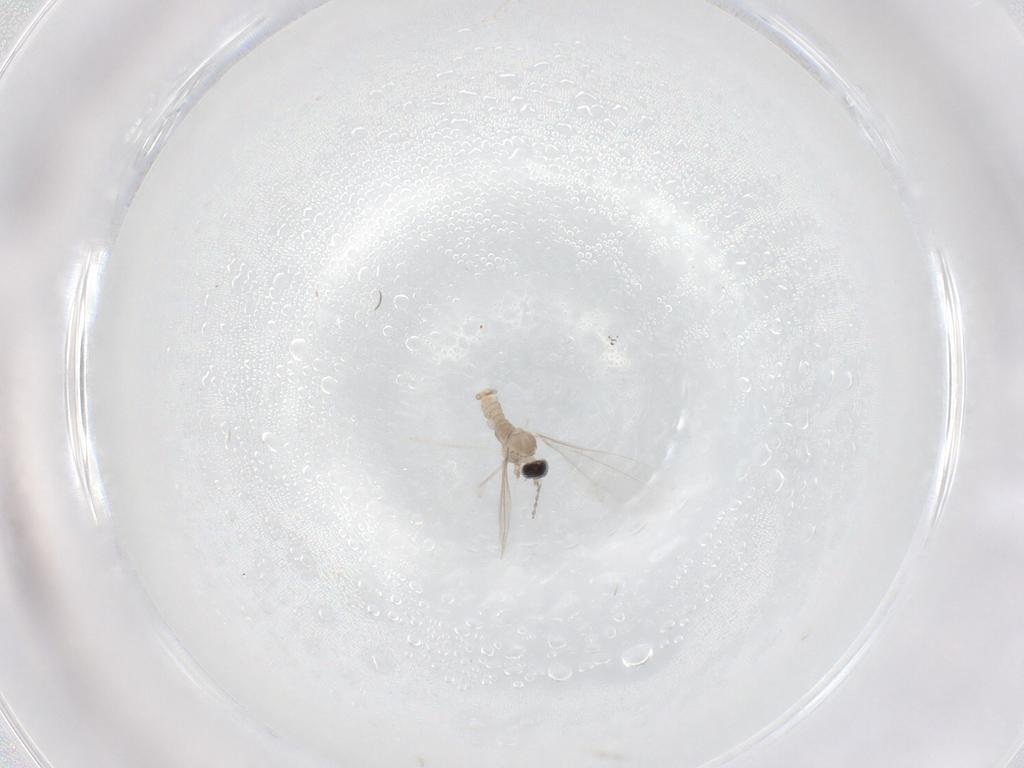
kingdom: Animalia
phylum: Arthropoda
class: Insecta
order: Diptera
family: Cecidomyiidae
